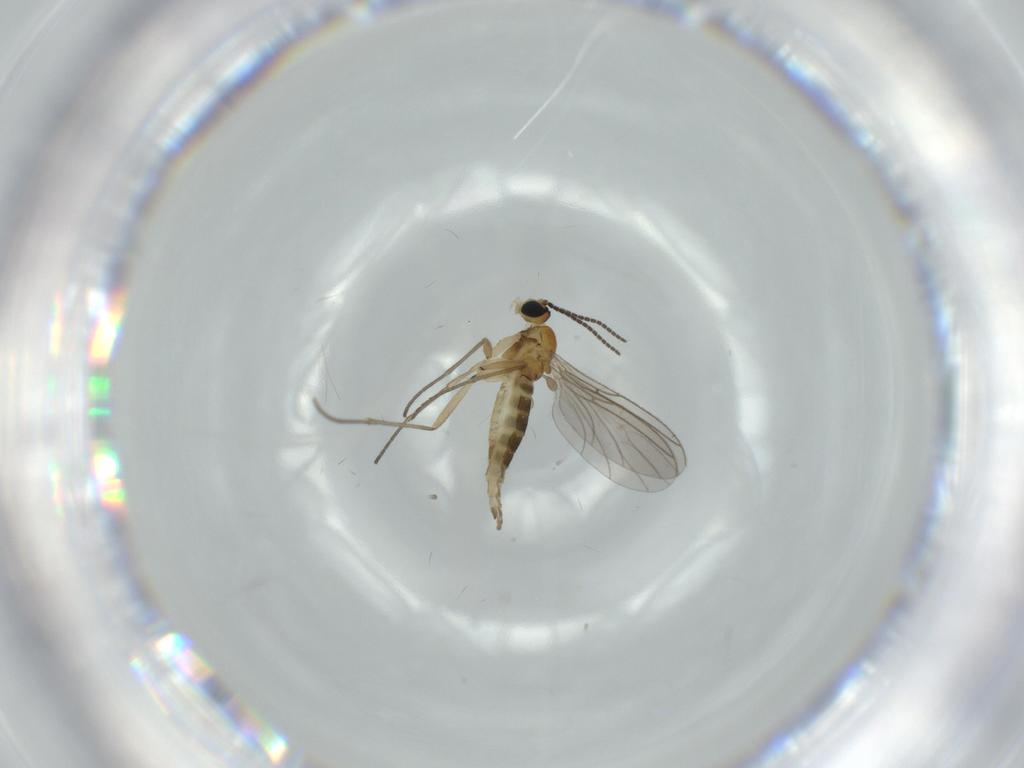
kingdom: Animalia
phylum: Arthropoda
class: Insecta
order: Diptera
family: Chironomidae
